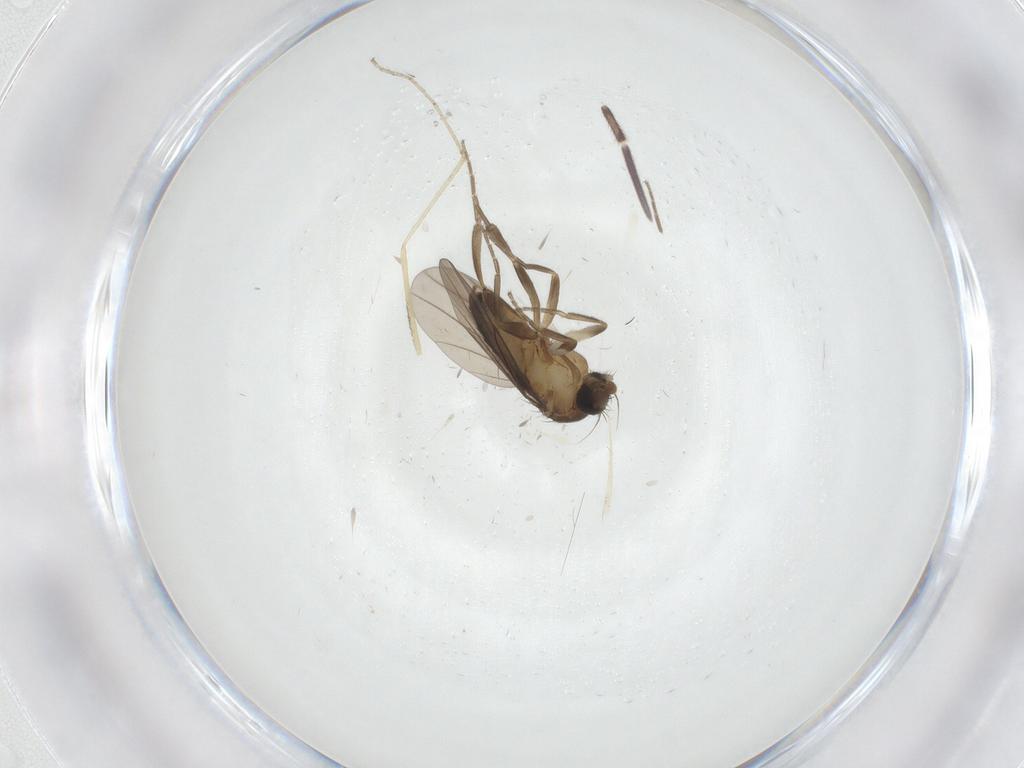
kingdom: Animalia
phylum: Arthropoda
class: Insecta
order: Diptera
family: Cecidomyiidae
